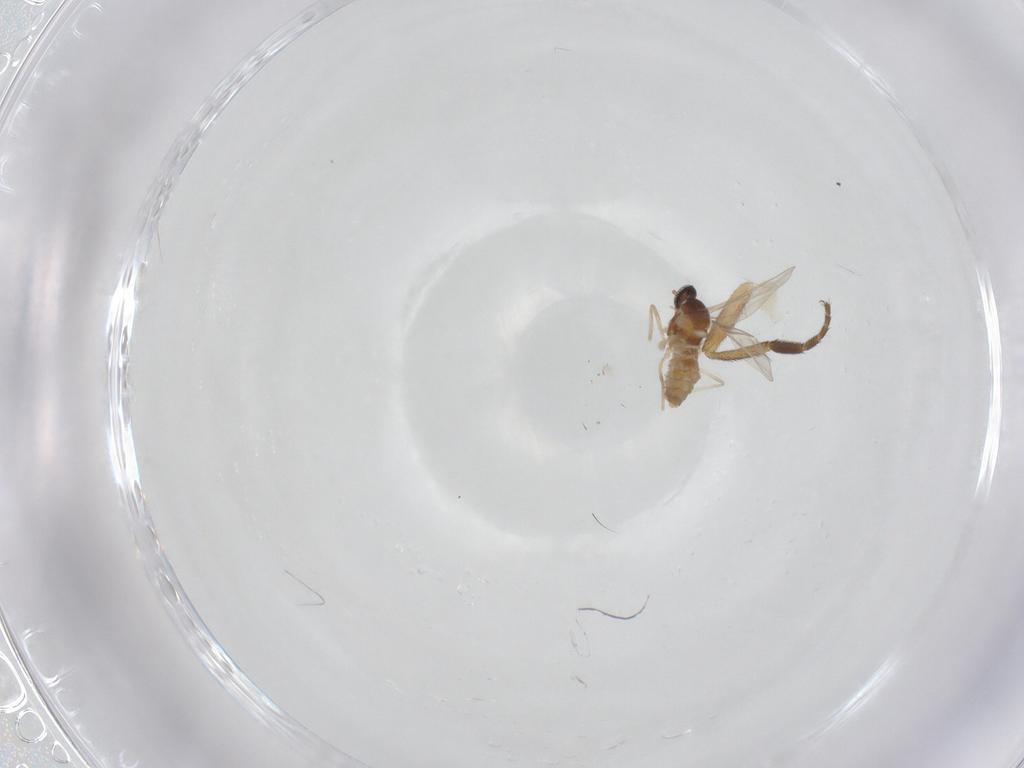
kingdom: Animalia
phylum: Arthropoda
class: Insecta
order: Diptera
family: Cecidomyiidae
